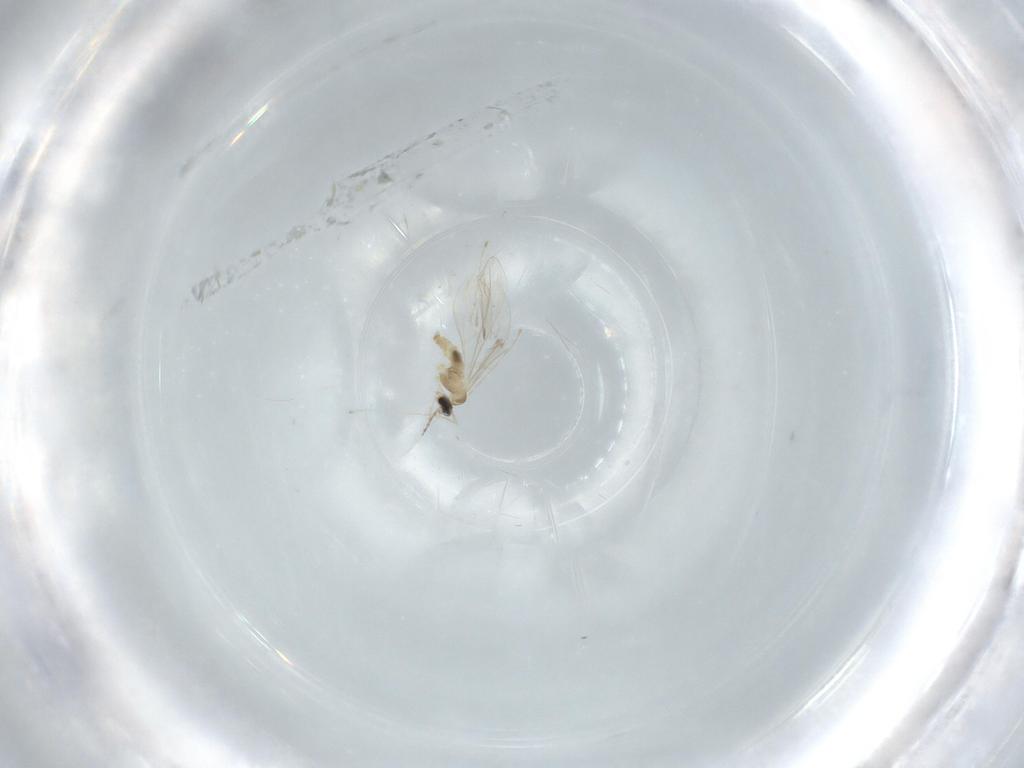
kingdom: Animalia
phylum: Arthropoda
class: Insecta
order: Diptera
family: Cecidomyiidae
